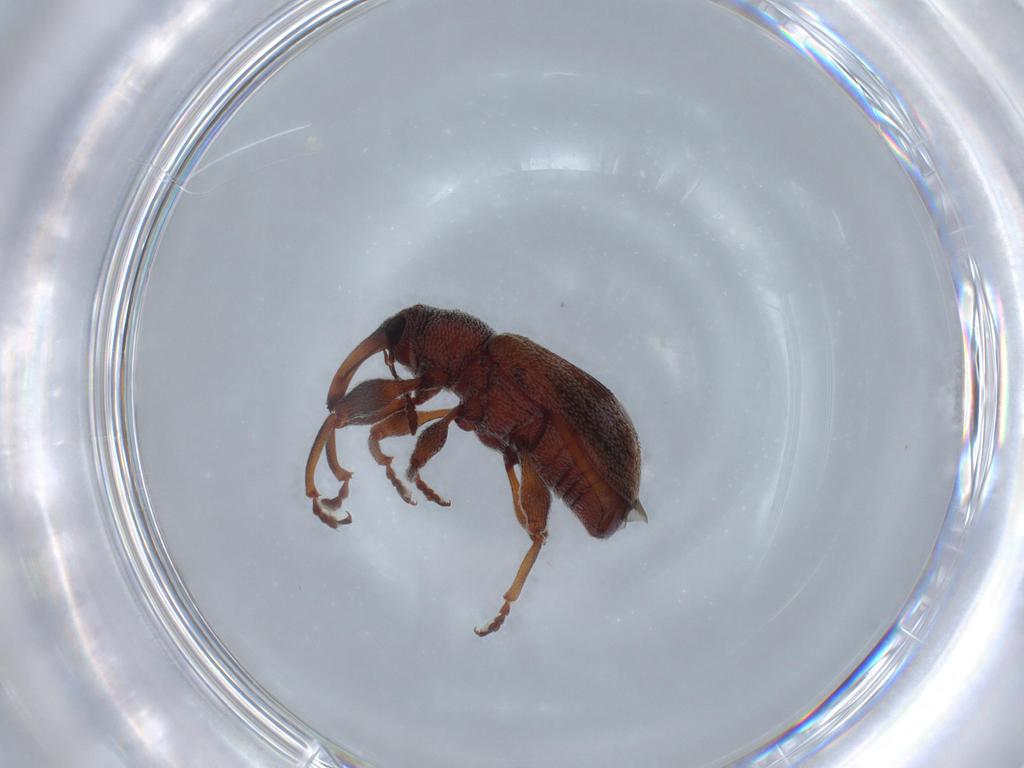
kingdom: Animalia
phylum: Arthropoda
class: Insecta
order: Coleoptera
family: Curculionidae
